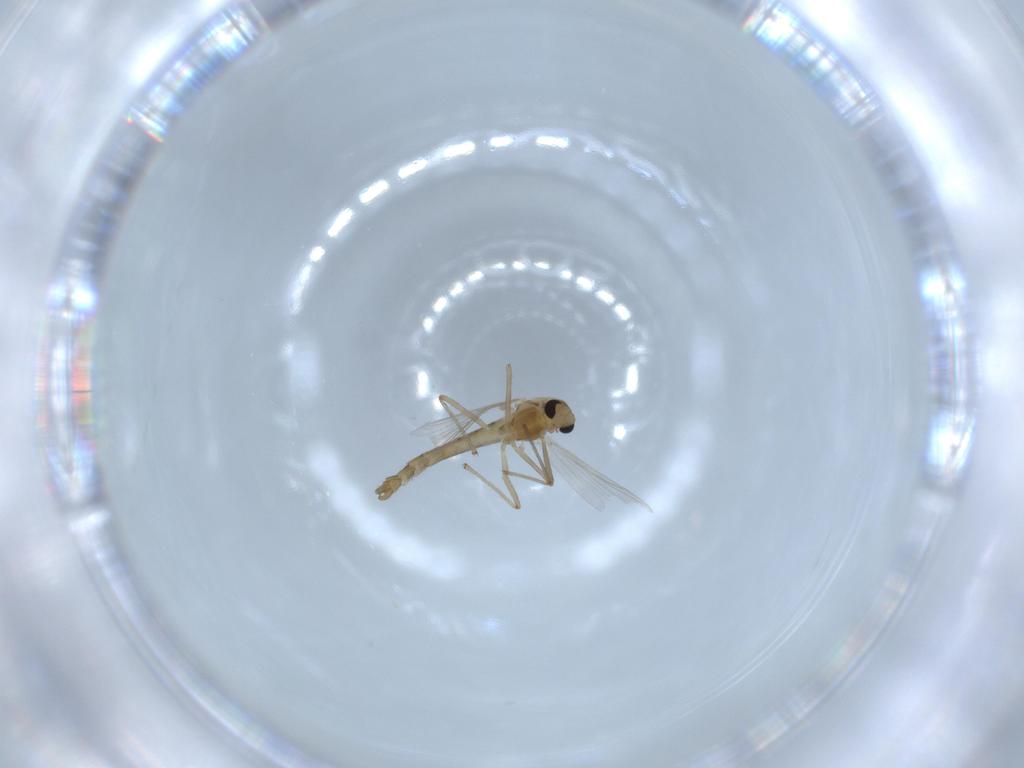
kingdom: Animalia
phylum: Arthropoda
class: Insecta
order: Diptera
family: Chironomidae
